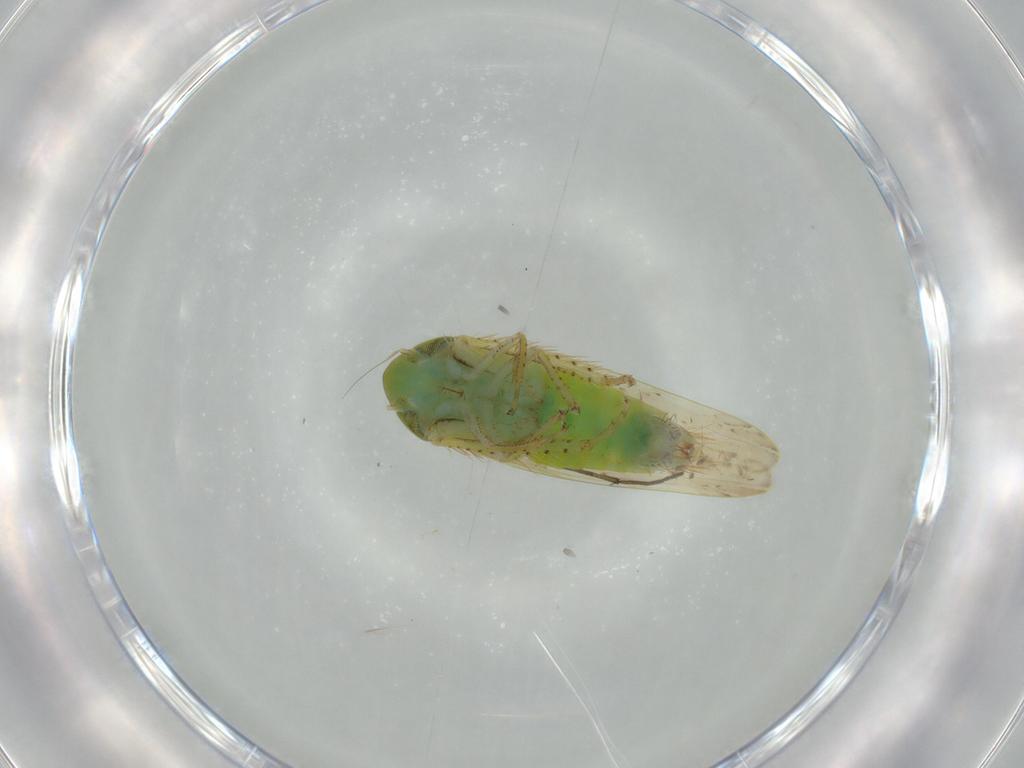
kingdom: Animalia
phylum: Arthropoda
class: Insecta
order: Hemiptera
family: Cicadellidae
